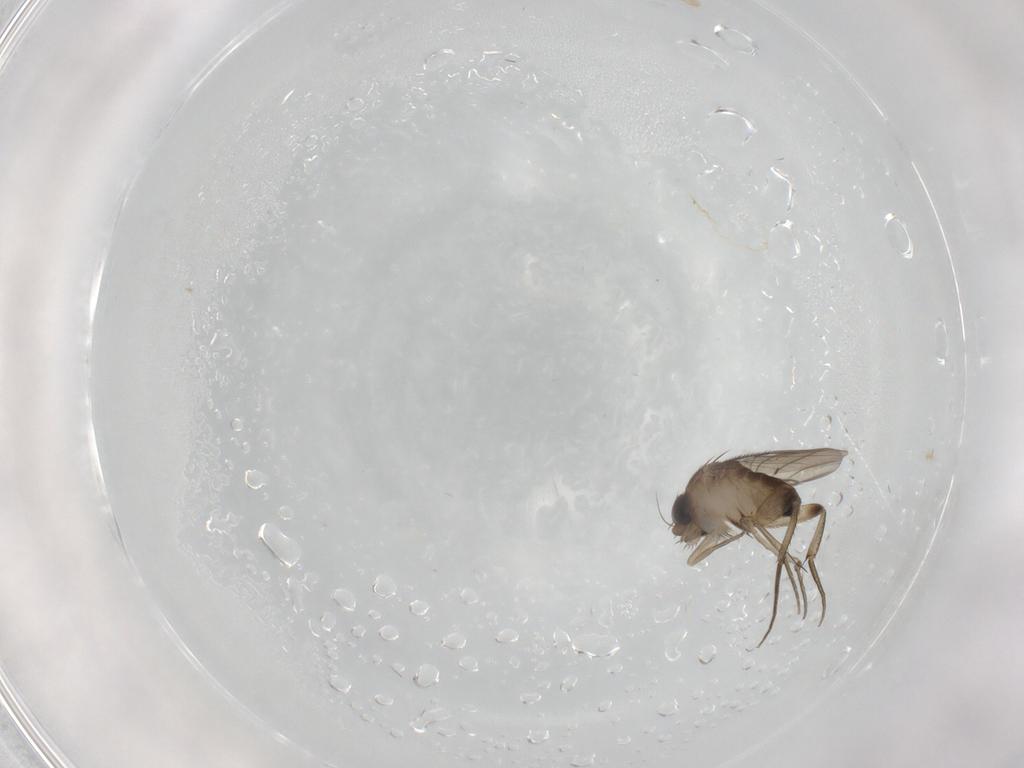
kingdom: Animalia
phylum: Arthropoda
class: Insecta
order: Diptera
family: Phoridae
